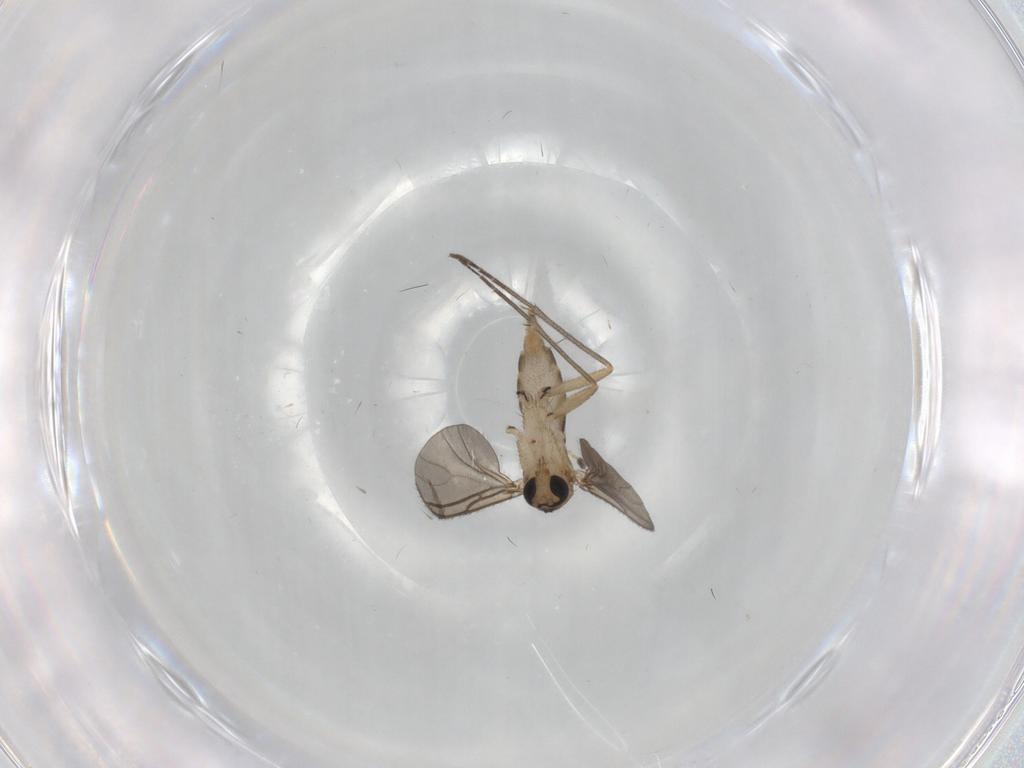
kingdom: Animalia
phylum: Arthropoda
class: Insecta
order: Diptera
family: Sciaridae
